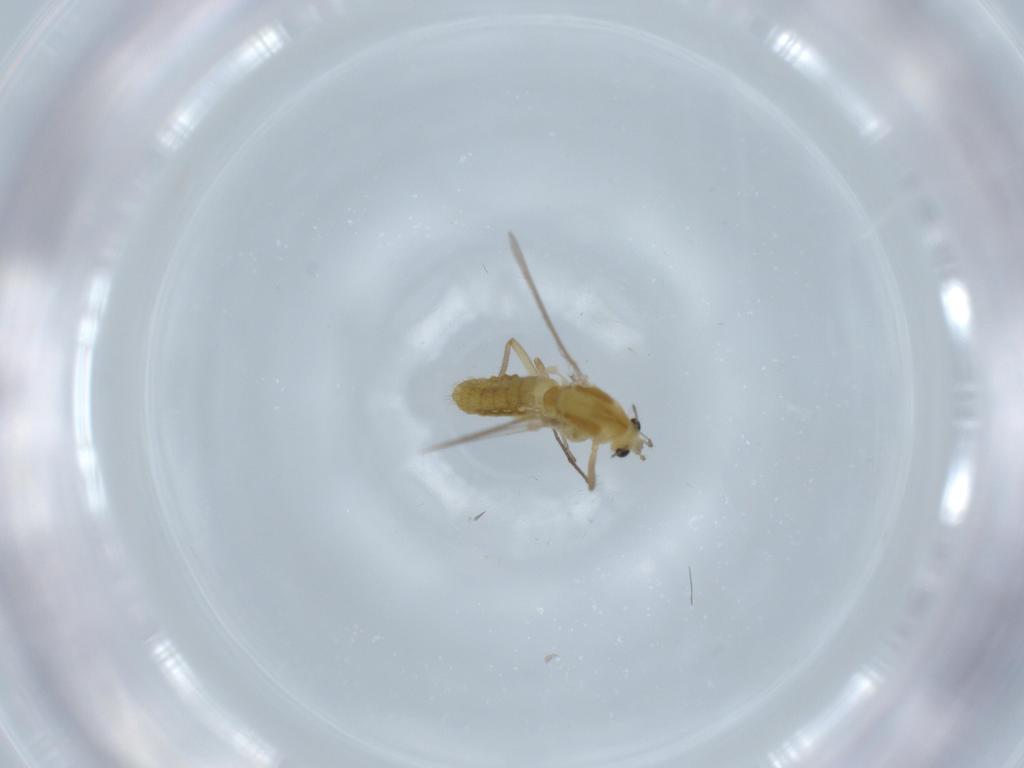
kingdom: Animalia
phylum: Arthropoda
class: Insecta
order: Diptera
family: Chironomidae
